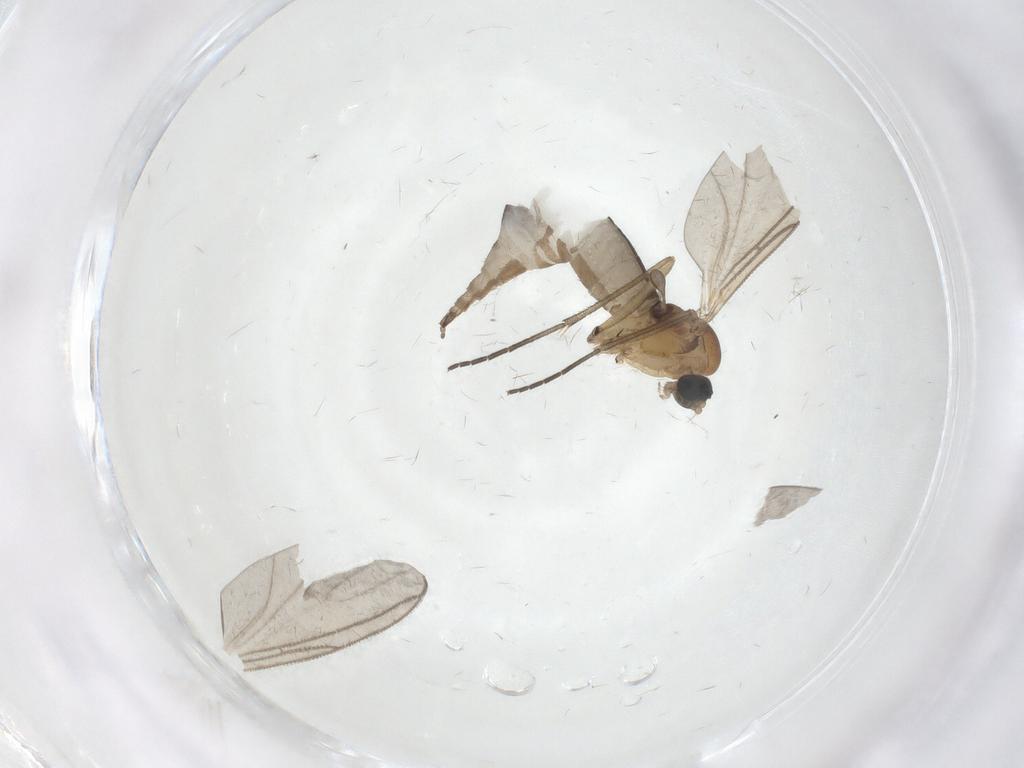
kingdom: Animalia
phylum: Arthropoda
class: Insecta
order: Diptera
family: Sciaridae
